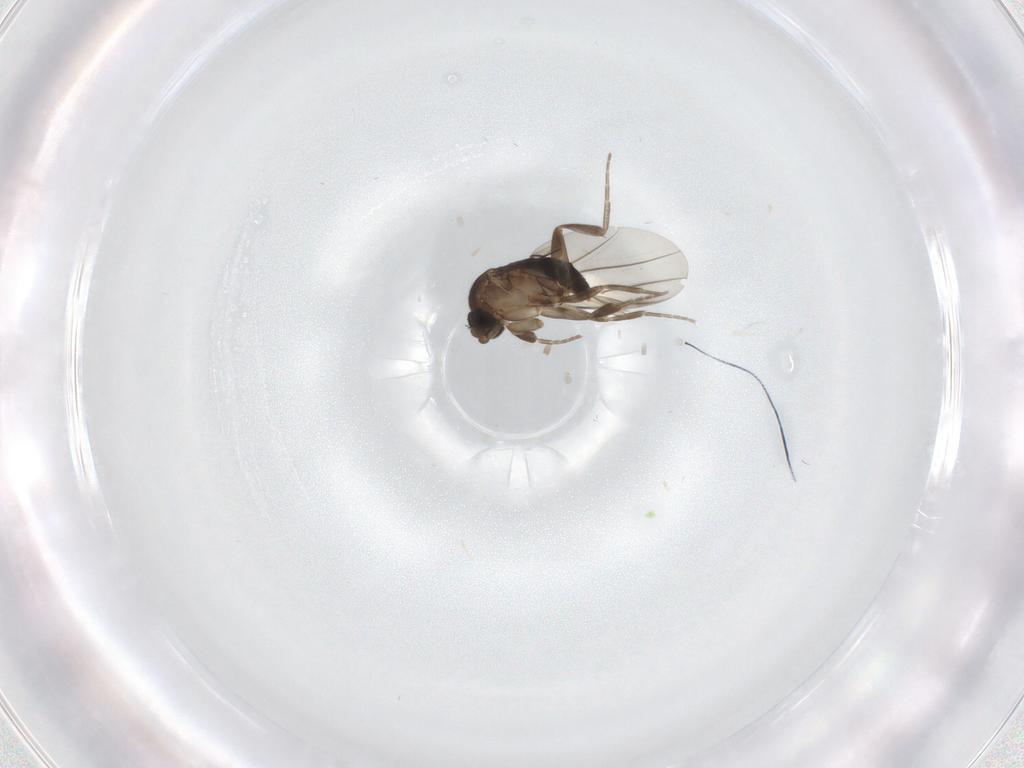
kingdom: Animalia
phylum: Arthropoda
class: Insecta
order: Diptera
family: Phoridae
